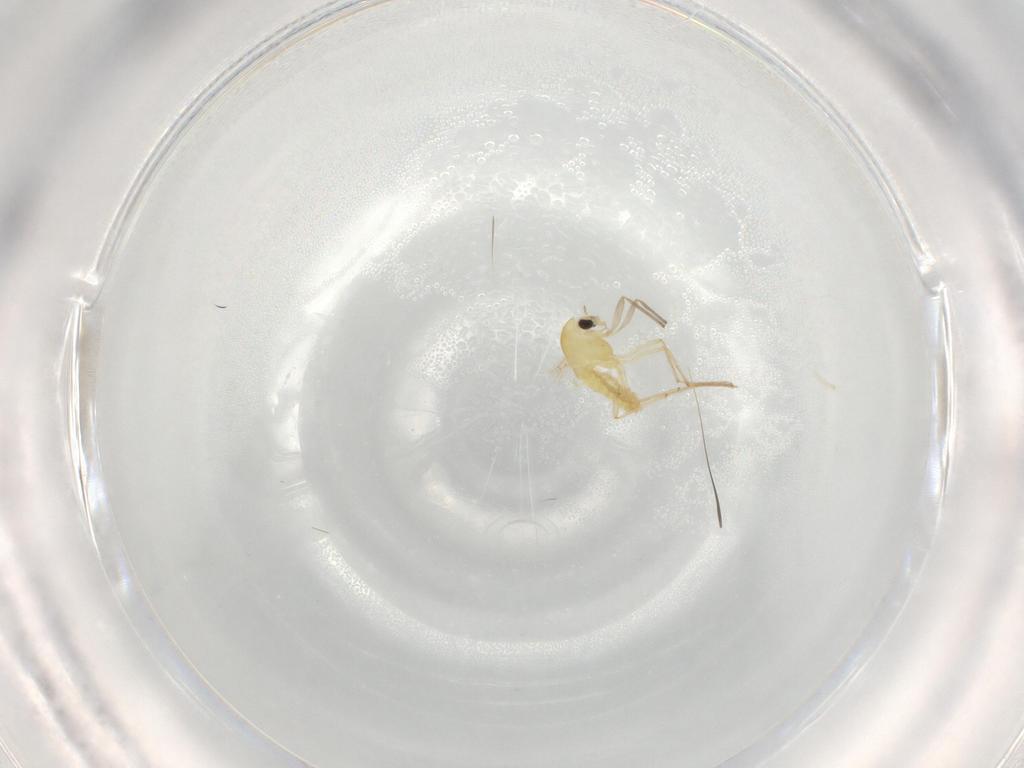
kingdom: Animalia
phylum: Arthropoda
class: Insecta
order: Diptera
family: Chironomidae
